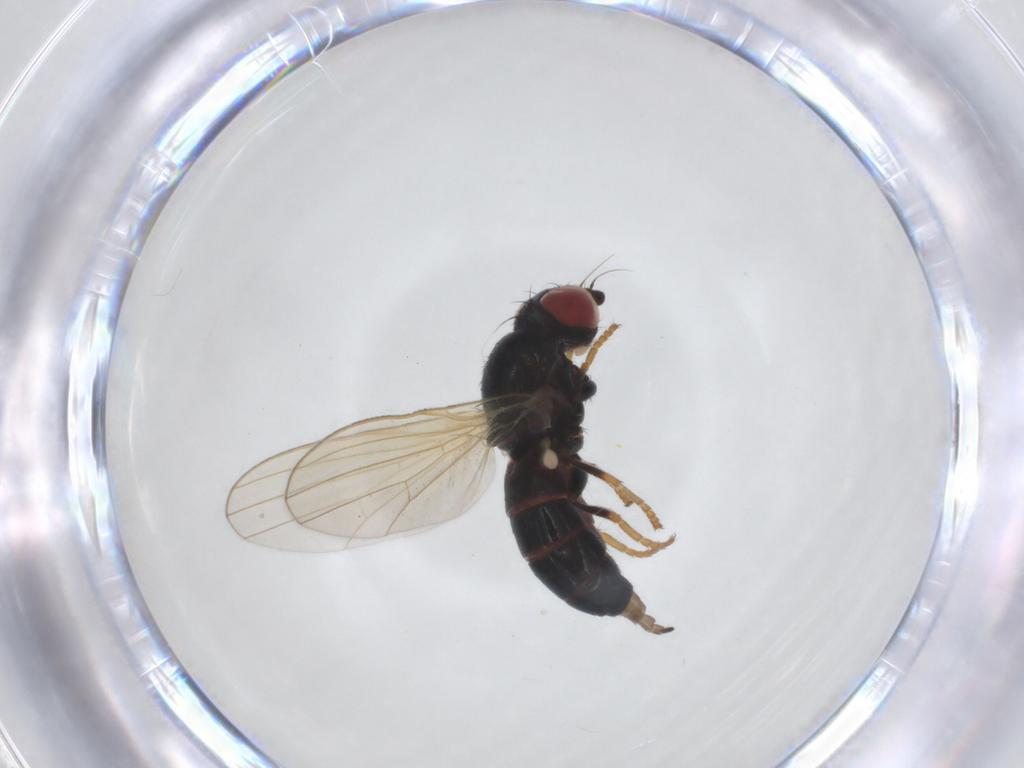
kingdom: Animalia
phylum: Arthropoda
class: Insecta
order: Diptera
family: Chamaemyiidae
